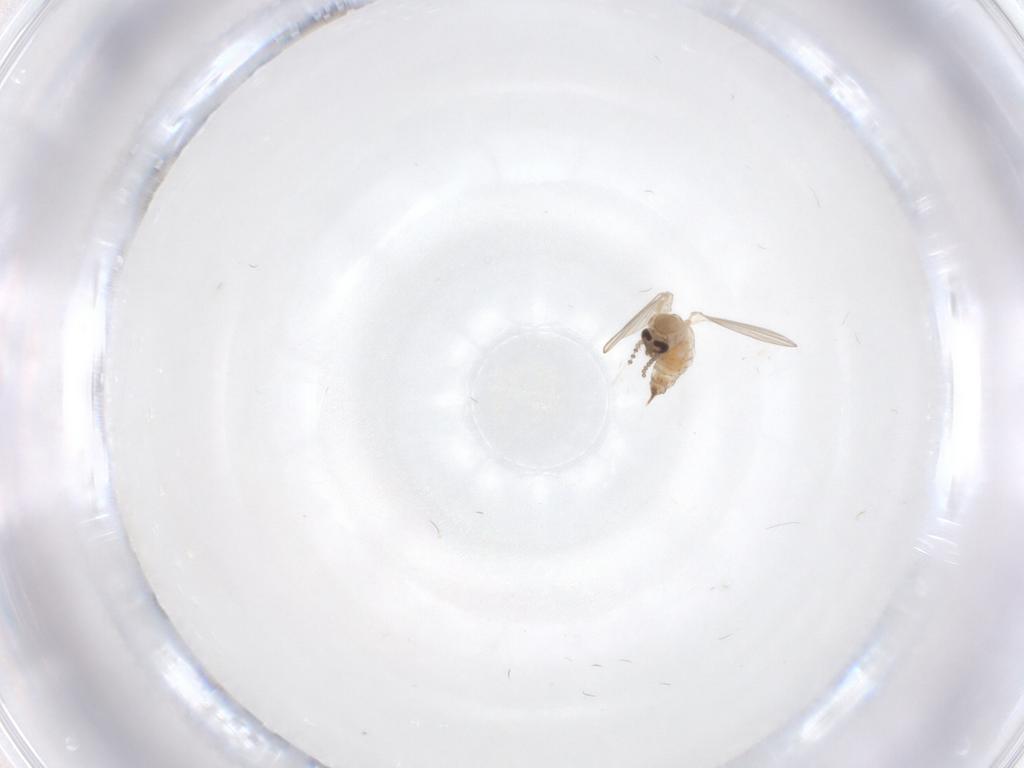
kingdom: Animalia
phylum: Arthropoda
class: Insecta
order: Diptera
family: Psychodidae
